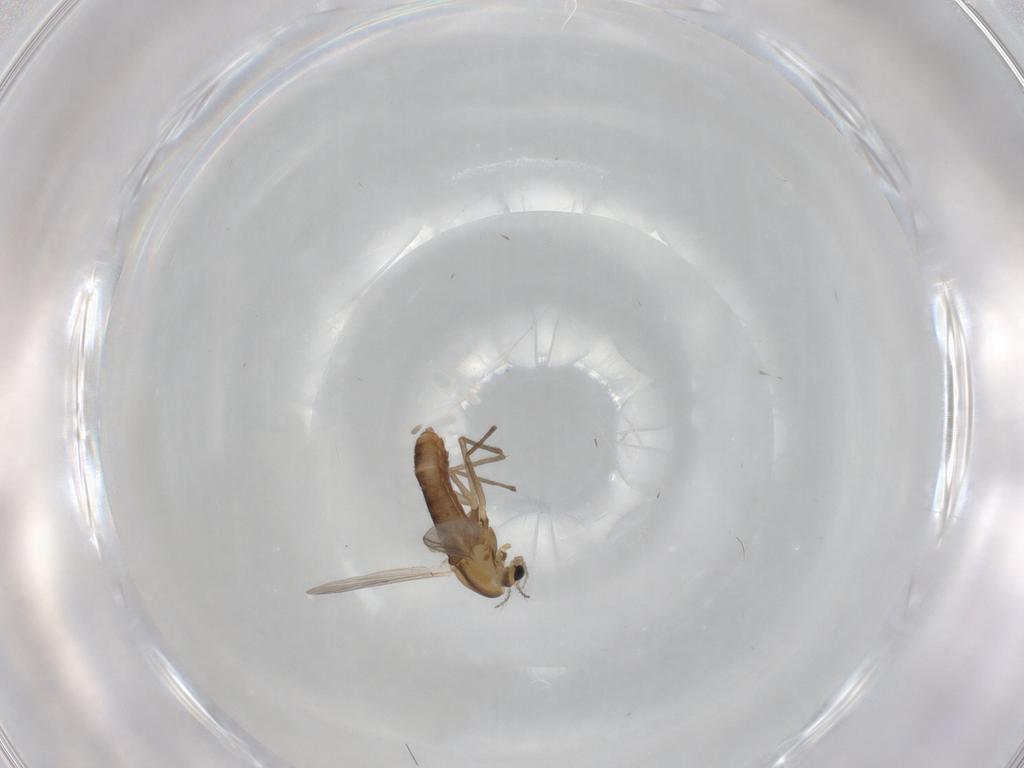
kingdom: Animalia
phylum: Arthropoda
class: Insecta
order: Diptera
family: Chironomidae
